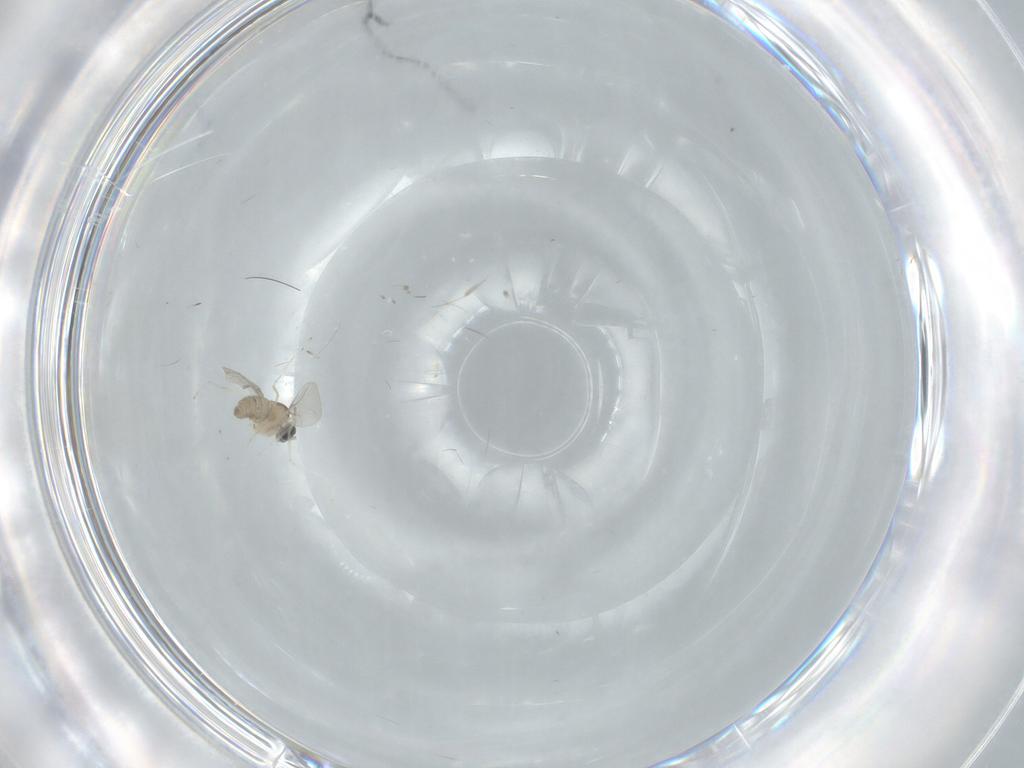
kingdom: Animalia
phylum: Arthropoda
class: Insecta
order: Diptera
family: Cecidomyiidae
